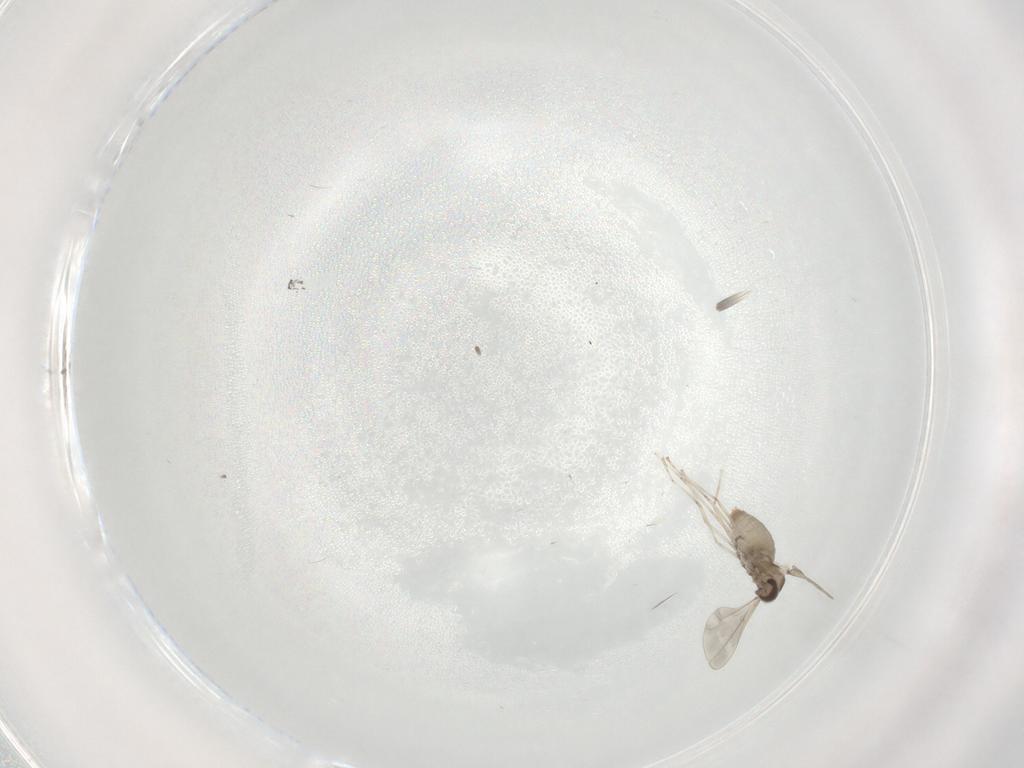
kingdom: Animalia
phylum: Arthropoda
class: Insecta
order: Diptera
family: Cecidomyiidae
